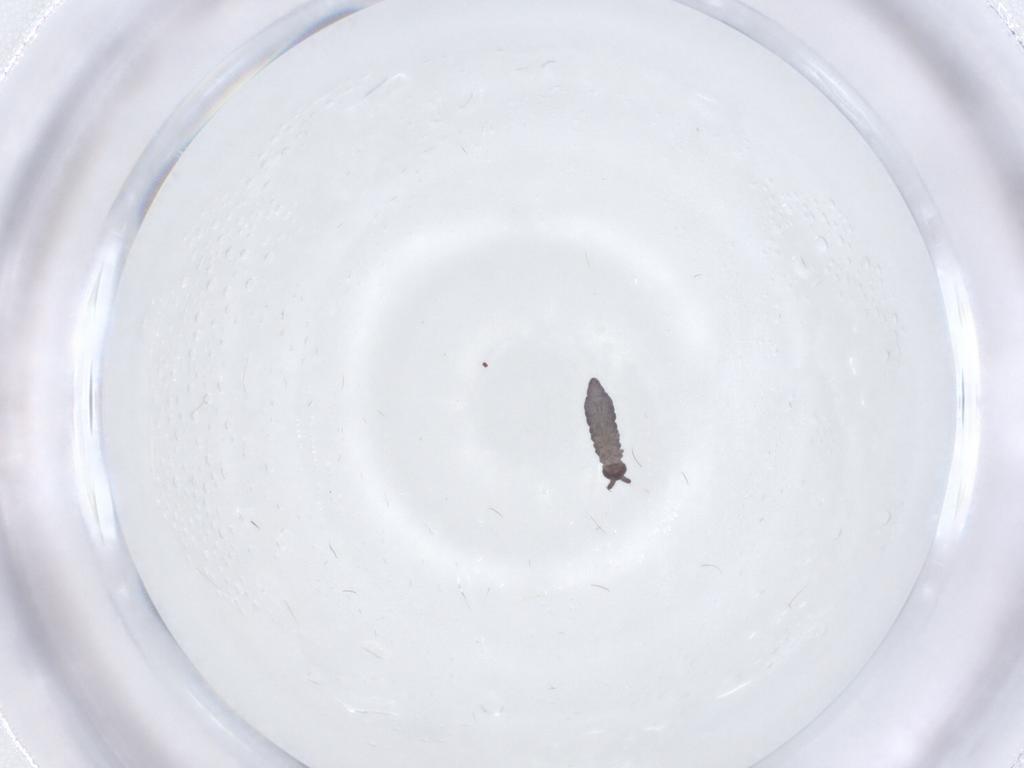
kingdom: Animalia
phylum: Arthropoda
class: Collembola
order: Poduromorpha
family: Hypogastruridae
